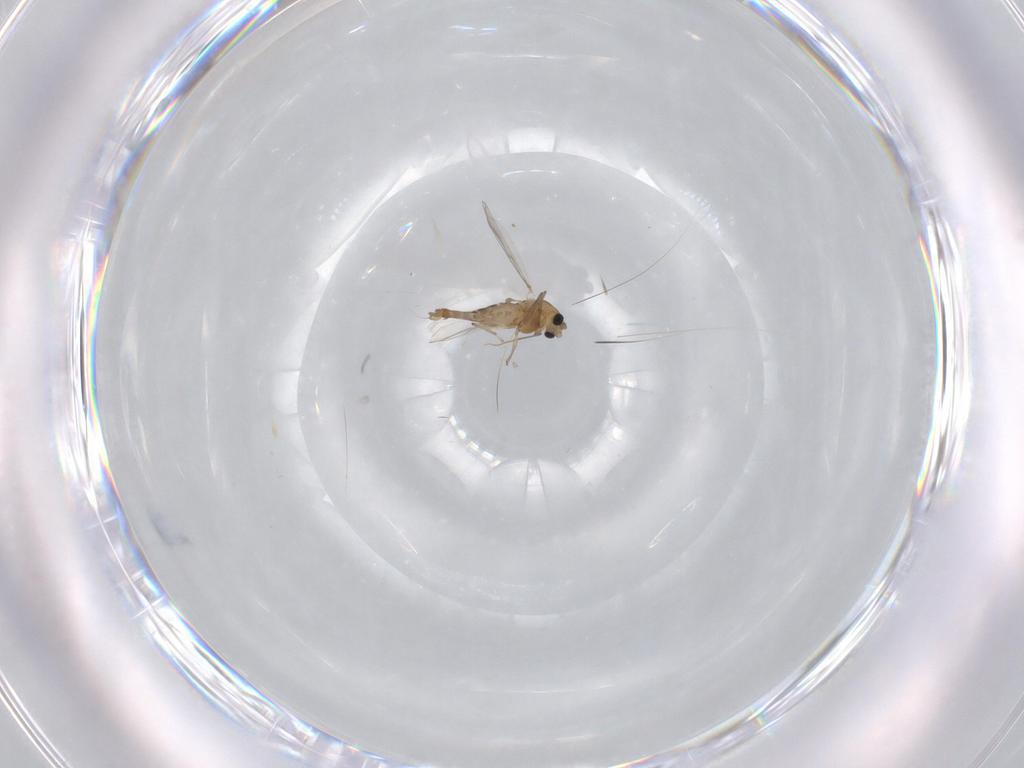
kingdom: Animalia
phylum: Arthropoda
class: Insecta
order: Diptera
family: Chironomidae
